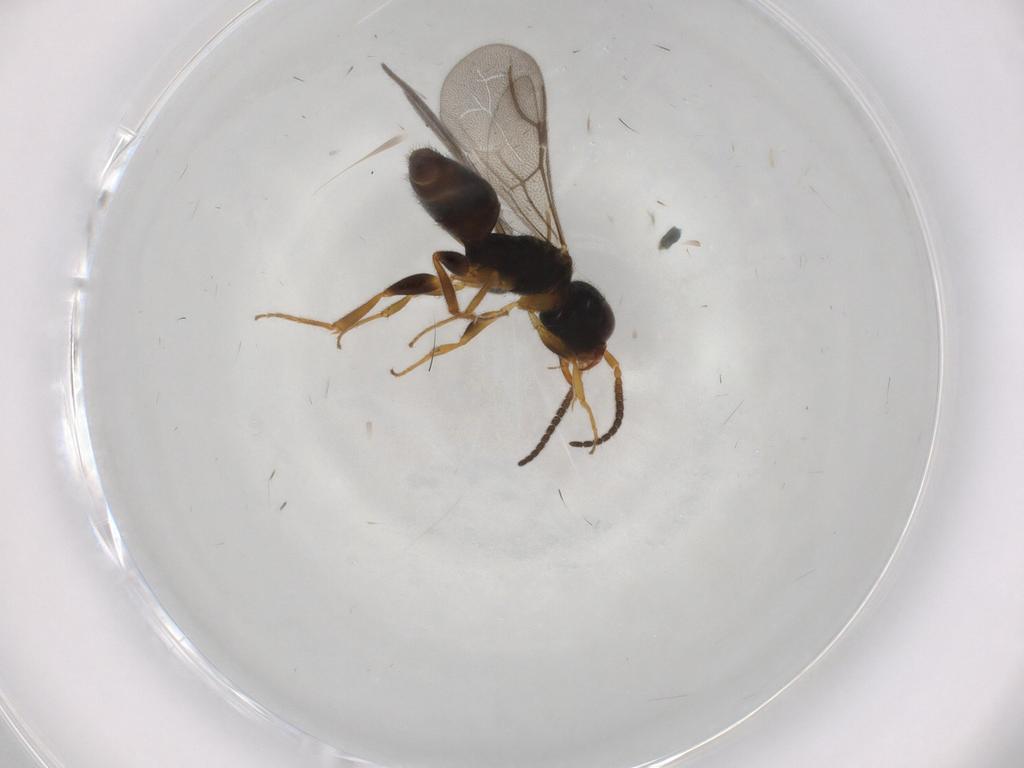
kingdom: Animalia
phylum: Arthropoda
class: Insecta
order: Hymenoptera
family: Bethylidae
